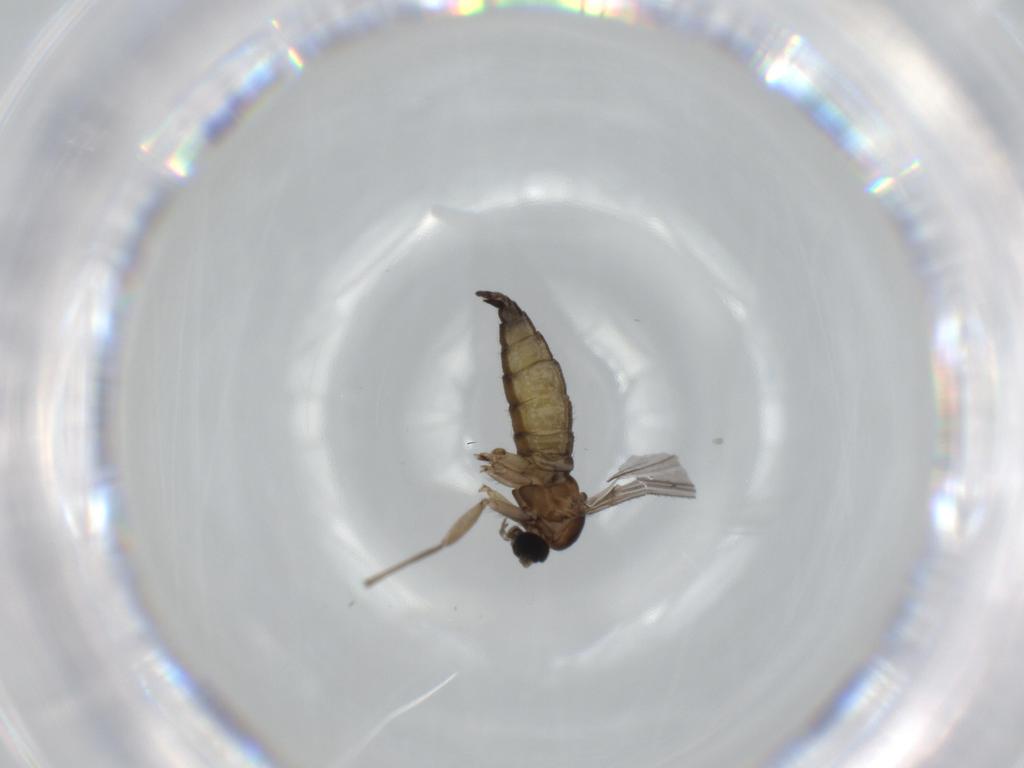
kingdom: Animalia
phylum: Arthropoda
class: Insecta
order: Diptera
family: Sciaridae
